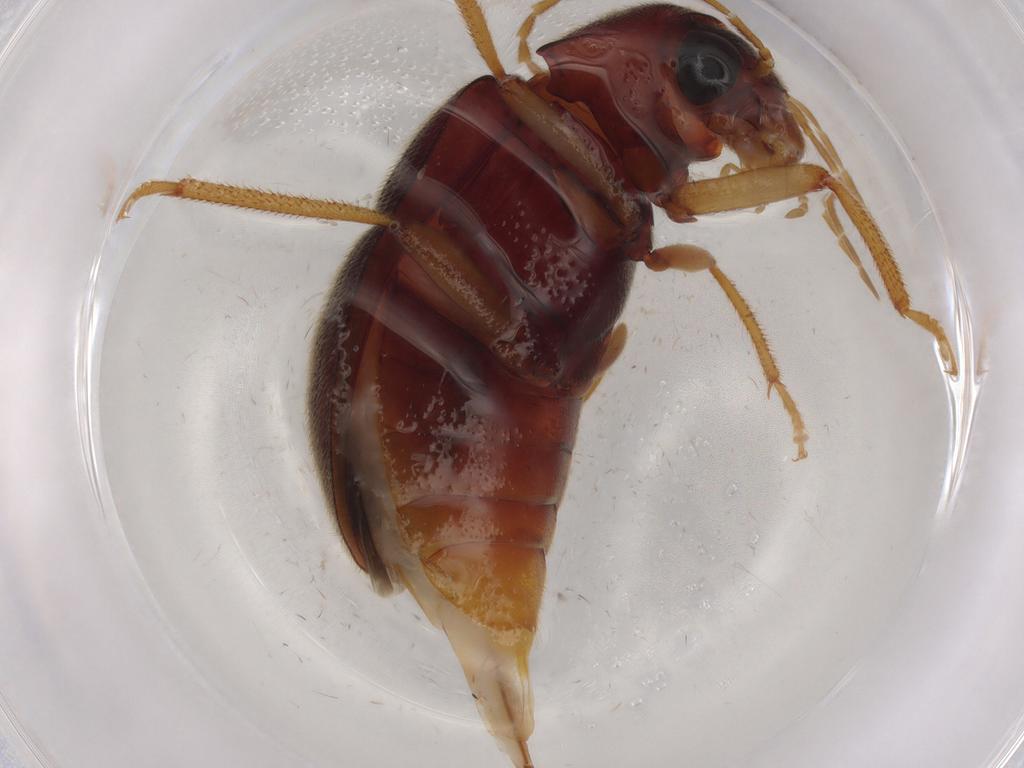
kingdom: Animalia
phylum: Arthropoda
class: Insecta
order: Coleoptera
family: Ptilodactylidae
